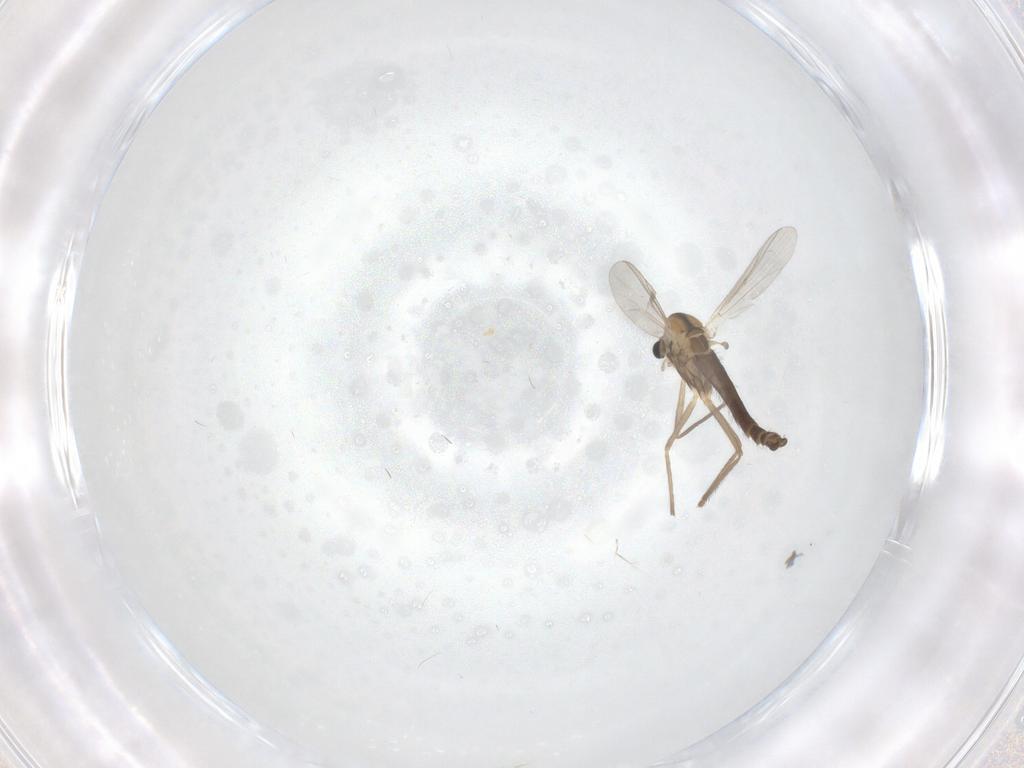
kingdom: Animalia
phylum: Arthropoda
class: Insecta
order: Diptera
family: Chironomidae
